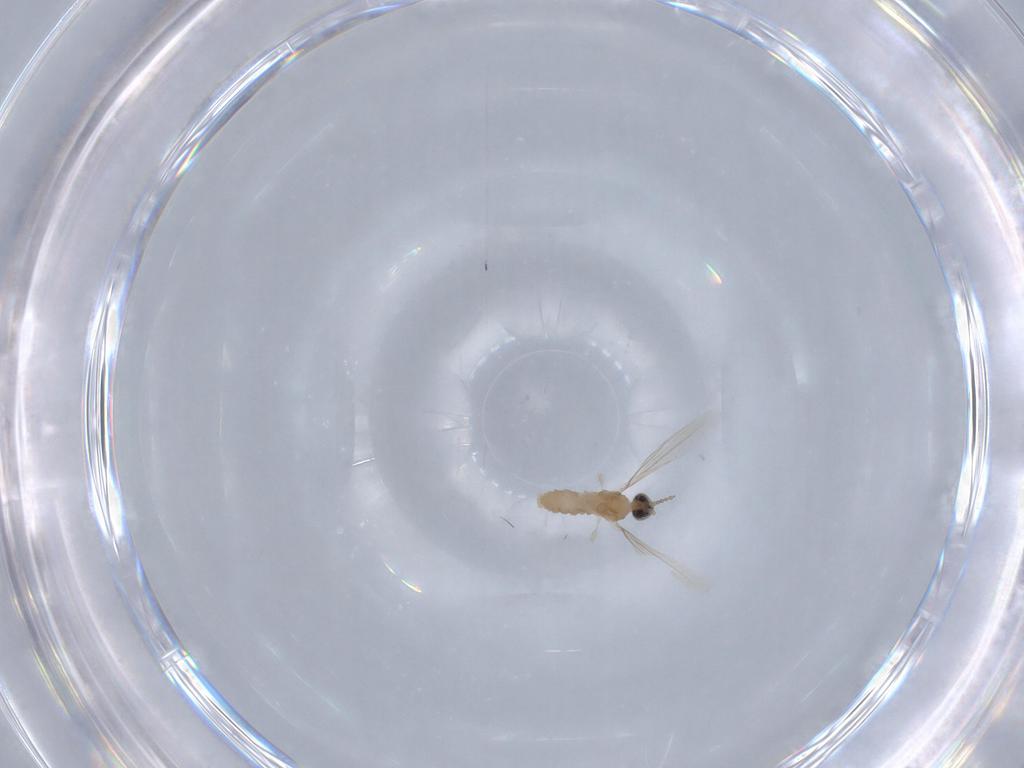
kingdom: Animalia
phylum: Arthropoda
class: Insecta
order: Diptera
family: Cecidomyiidae
